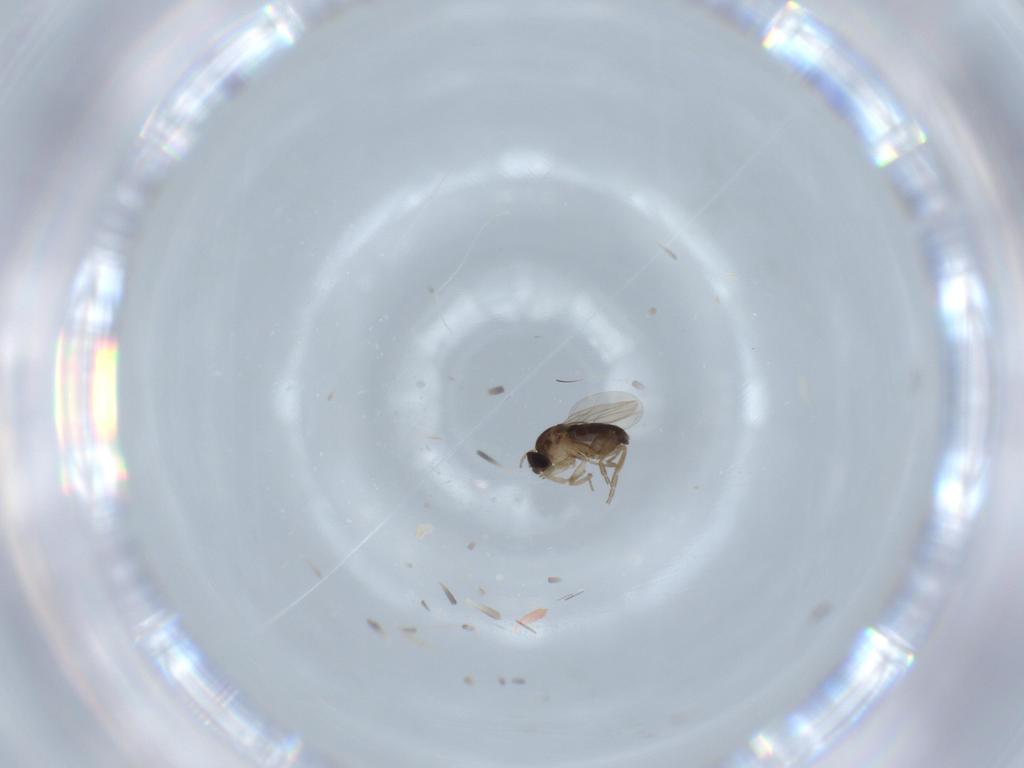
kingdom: Animalia
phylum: Arthropoda
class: Insecta
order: Diptera
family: Phoridae
